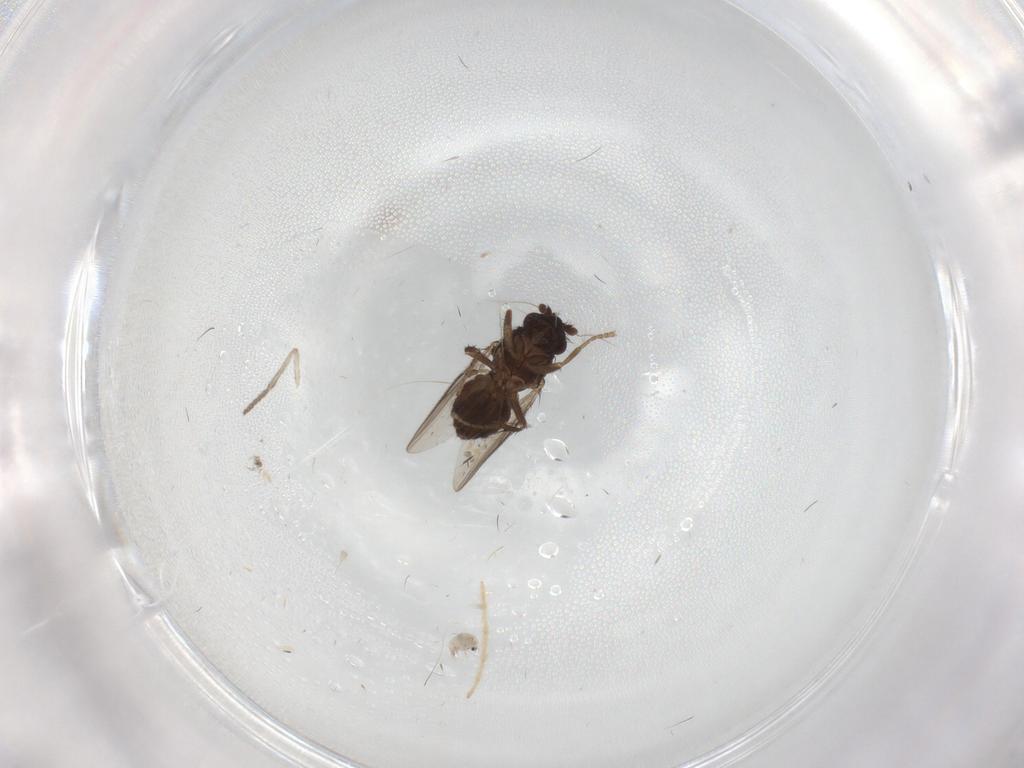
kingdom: Animalia
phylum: Arthropoda
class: Insecta
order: Diptera
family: Sphaeroceridae
